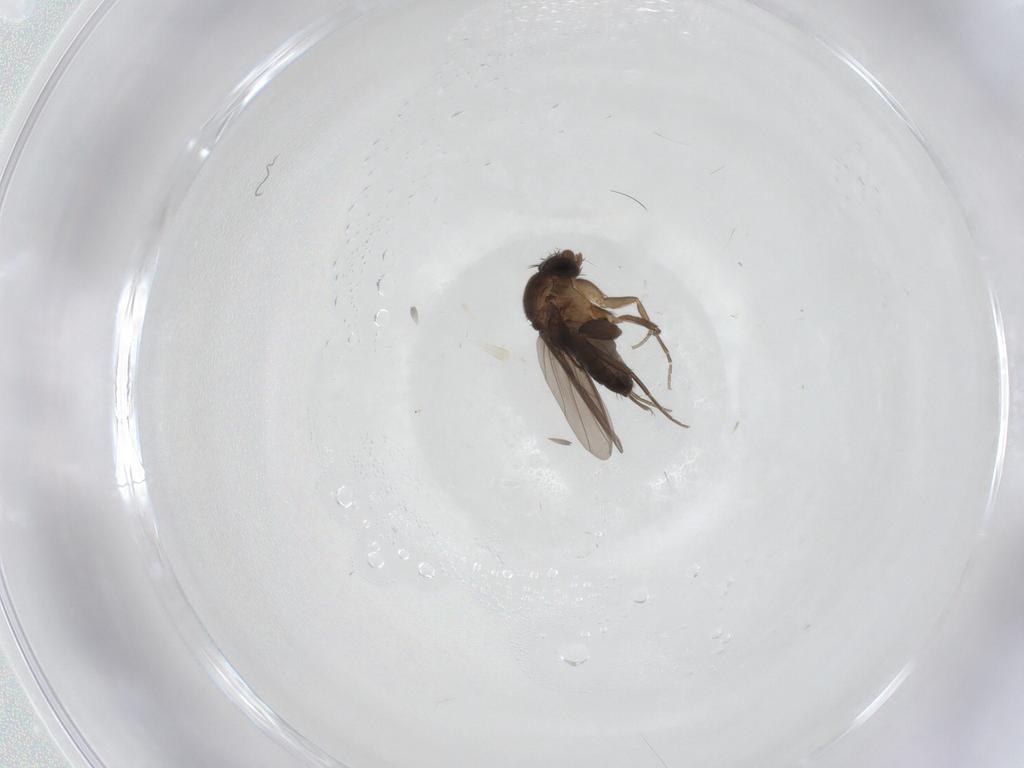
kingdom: Animalia
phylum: Arthropoda
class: Insecta
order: Diptera
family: Phoridae
